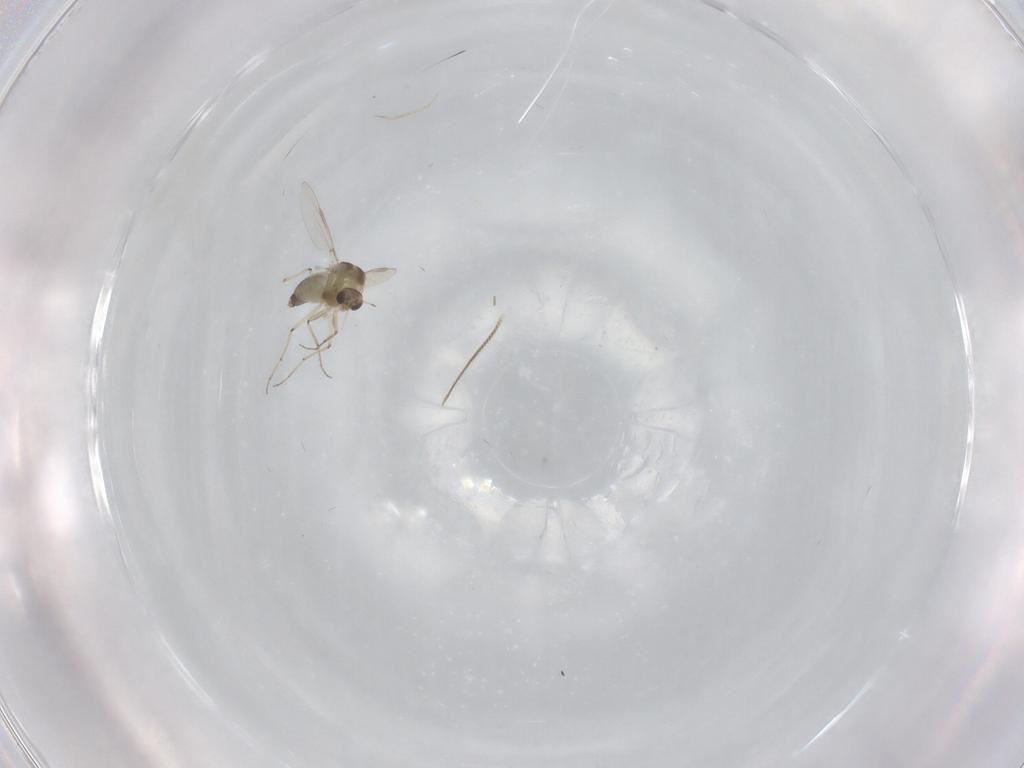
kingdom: Animalia
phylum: Arthropoda
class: Insecta
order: Diptera
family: Chironomidae
